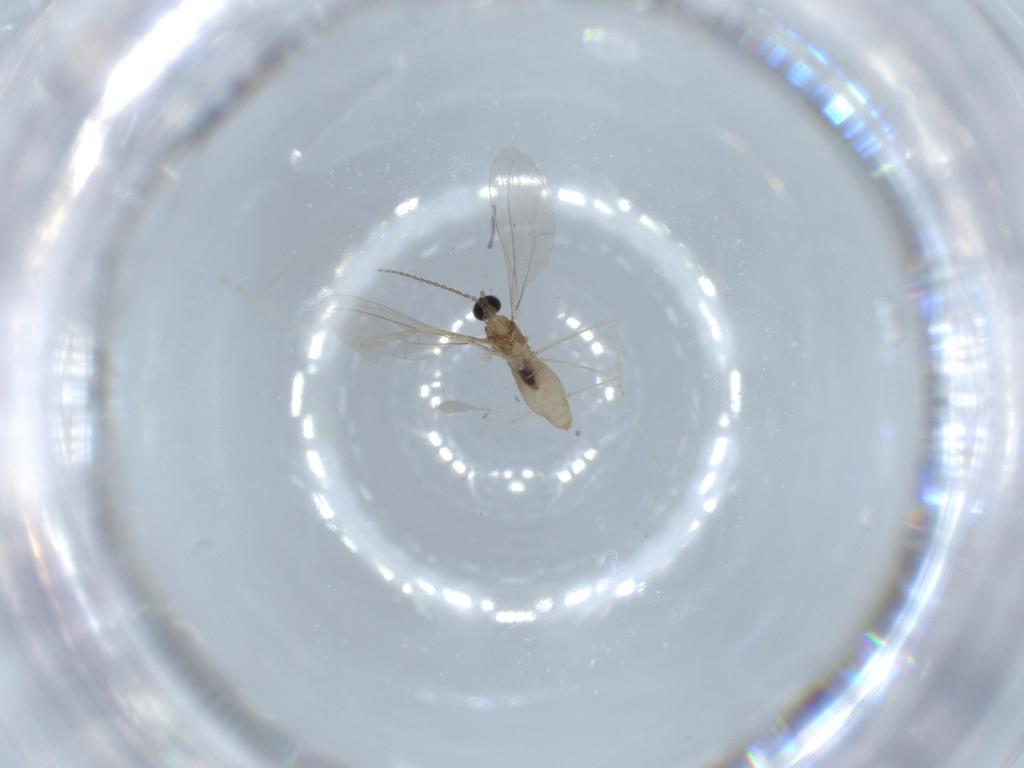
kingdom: Animalia
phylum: Arthropoda
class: Insecta
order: Diptera
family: Cecidomyiidae
